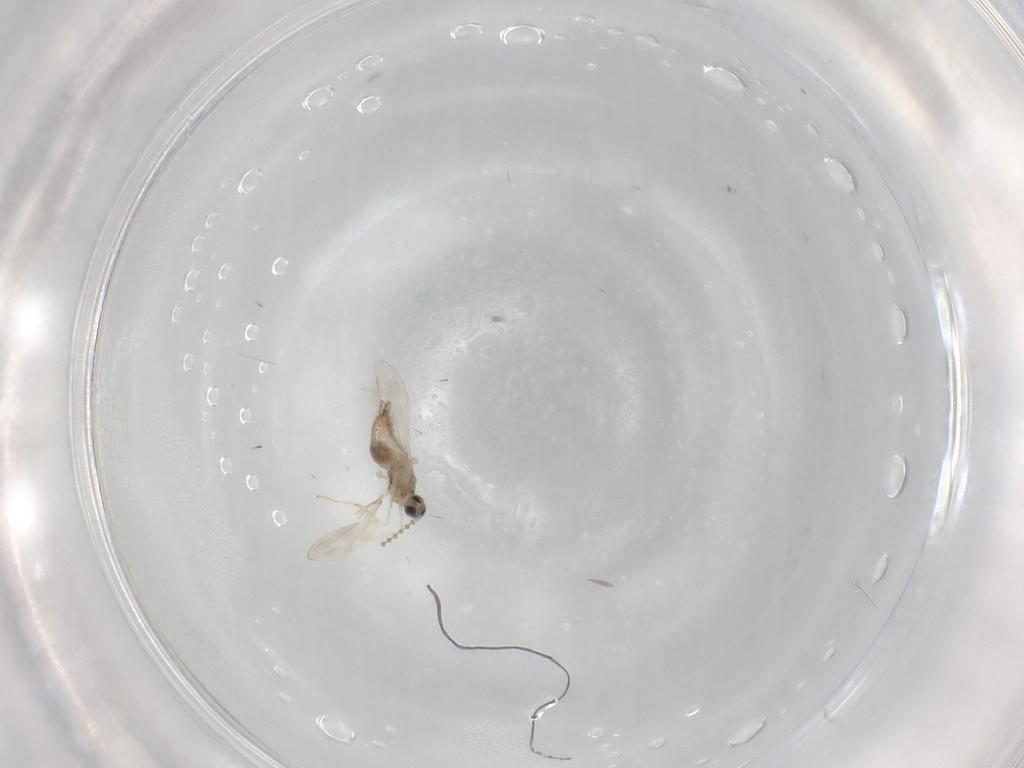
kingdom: Animalia
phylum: Arthropoda
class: Insecta
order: Diptera
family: Cecidomyiidae
